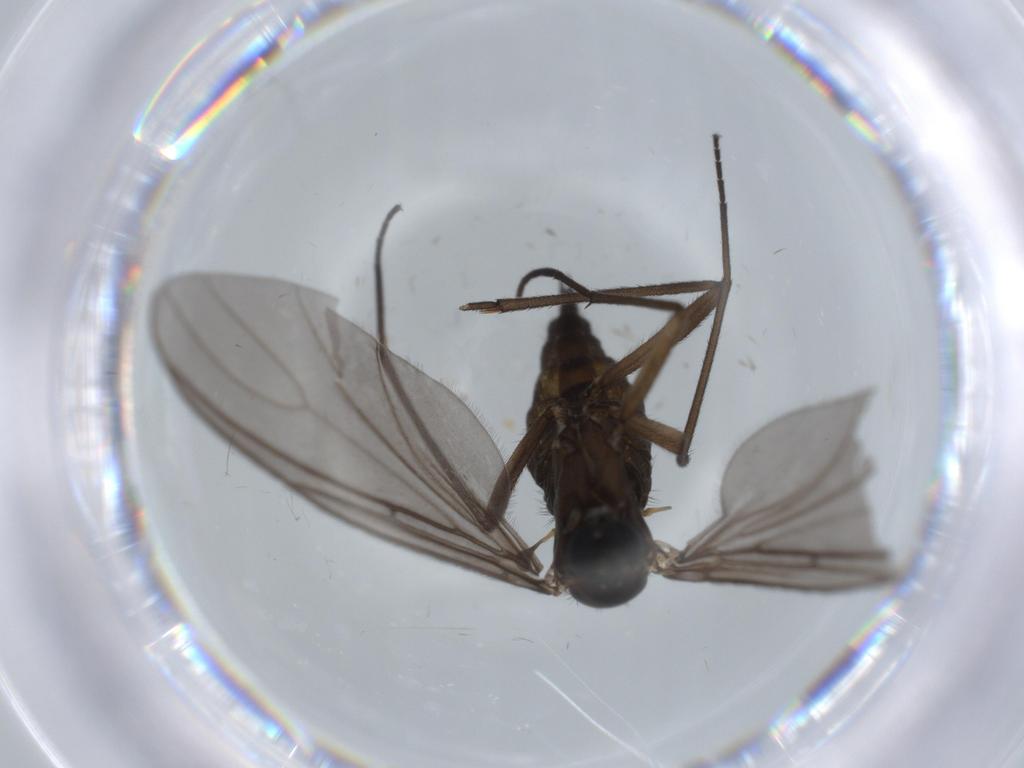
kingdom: Animalia
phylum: Arthropoda
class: Insecta
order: Diptera
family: Sciaridae
